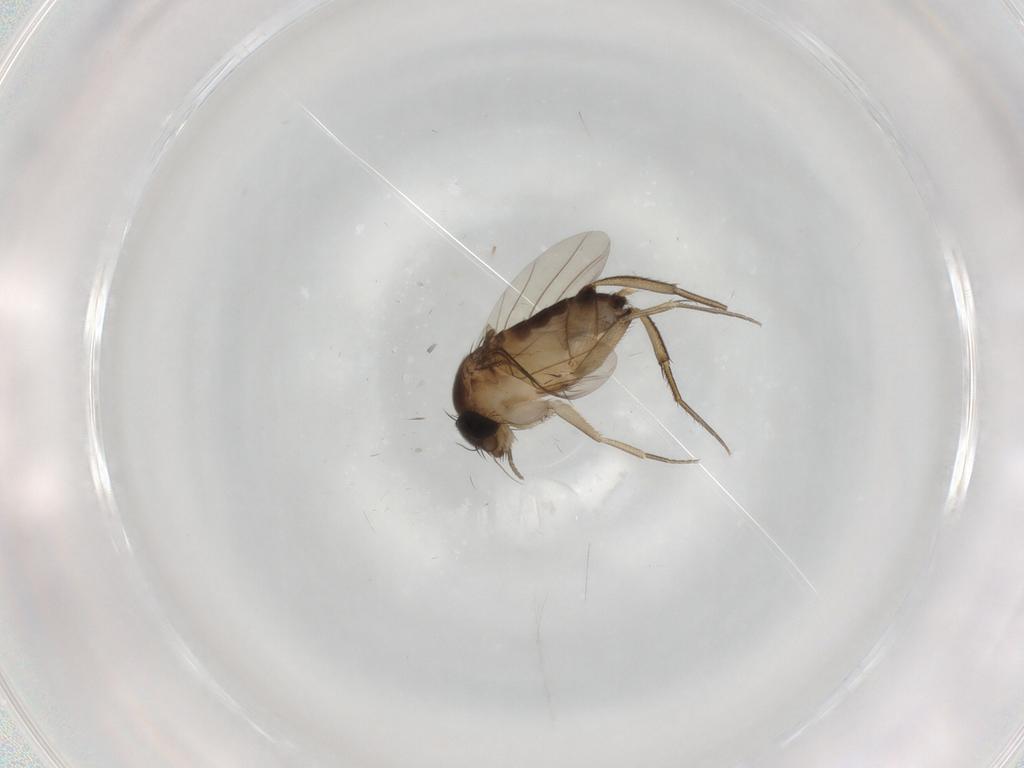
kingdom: Animalia
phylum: Arthropoda
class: Insecta
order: Diptera
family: Phoridae
